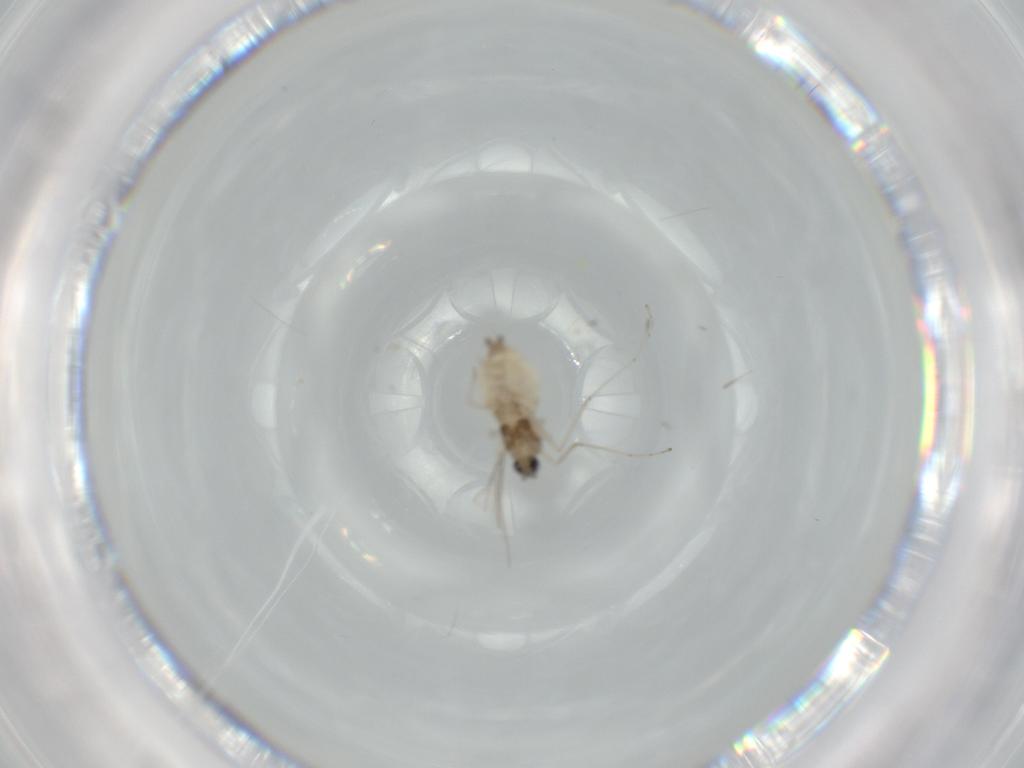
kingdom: Animalia
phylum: Arthropoda
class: Insecta
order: Diptera
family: Cecidomyiidae
